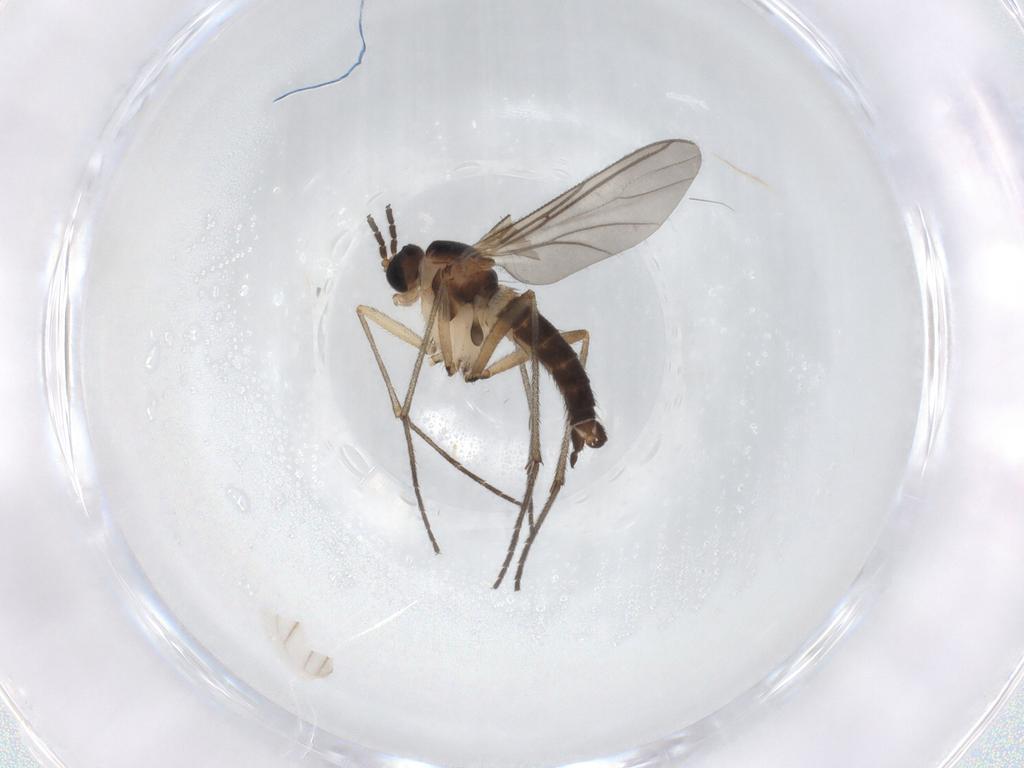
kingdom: Animalia
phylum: Arthropoda
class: Insecta
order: Diptera
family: Sciaridae
